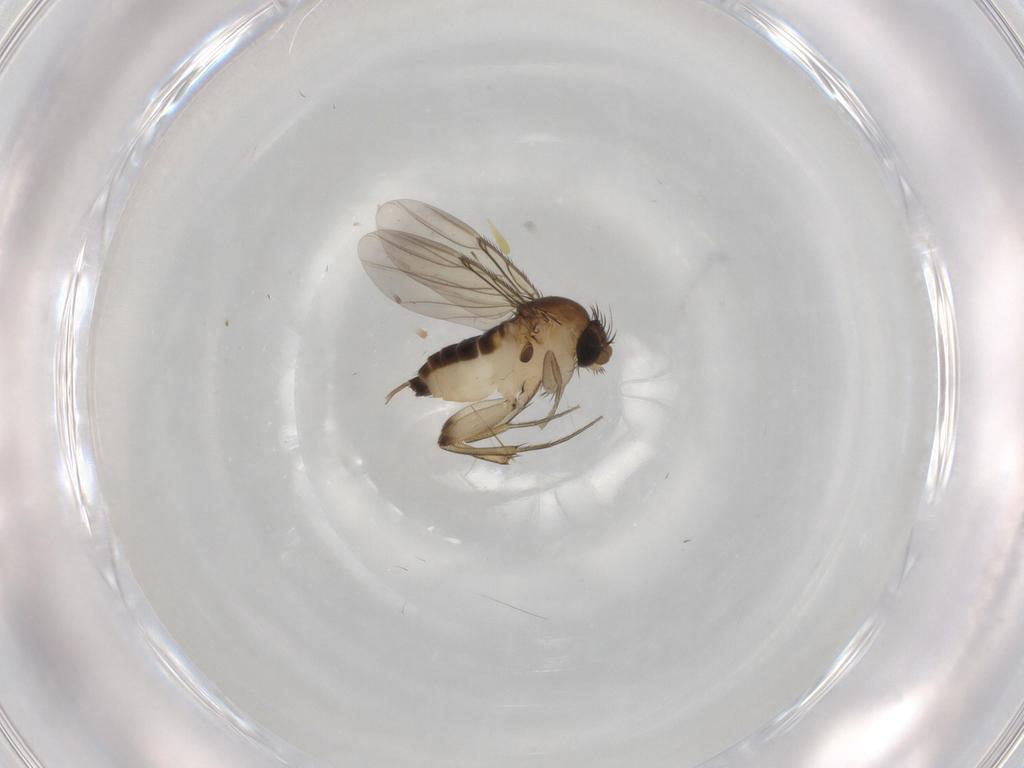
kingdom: Animalia
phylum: Arthropoda
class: Insecta
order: Diptera
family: Phoridae
